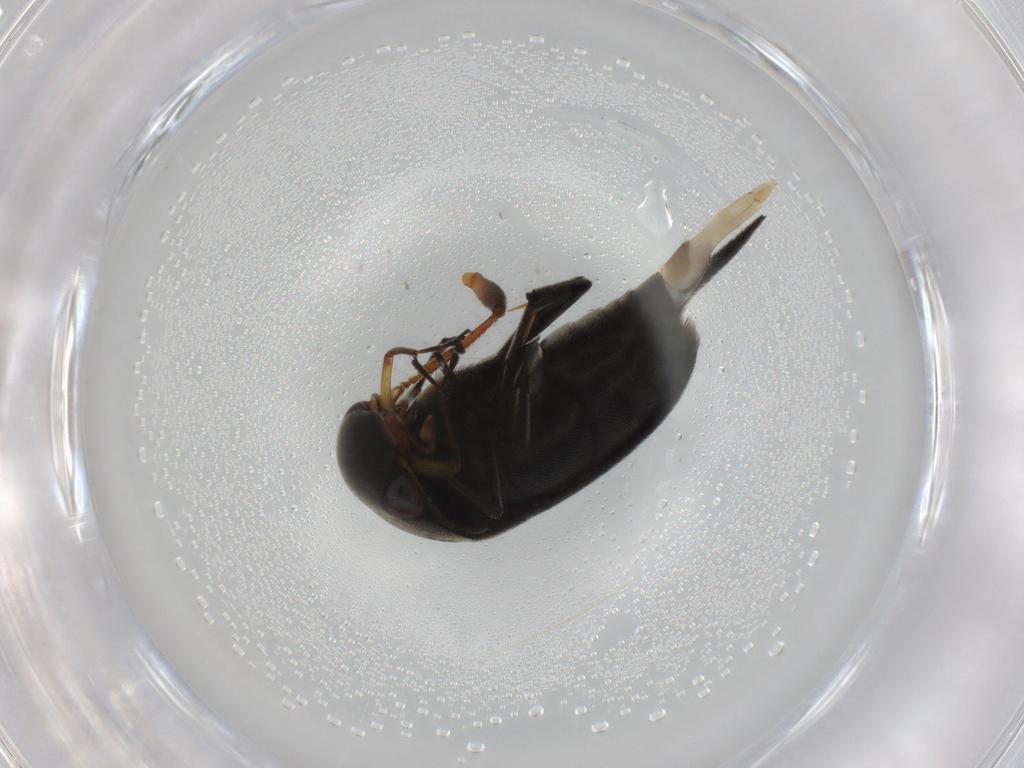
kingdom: Animalia
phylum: Arthropoda
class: Insecta
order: Coleoptera
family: Mordellidae
